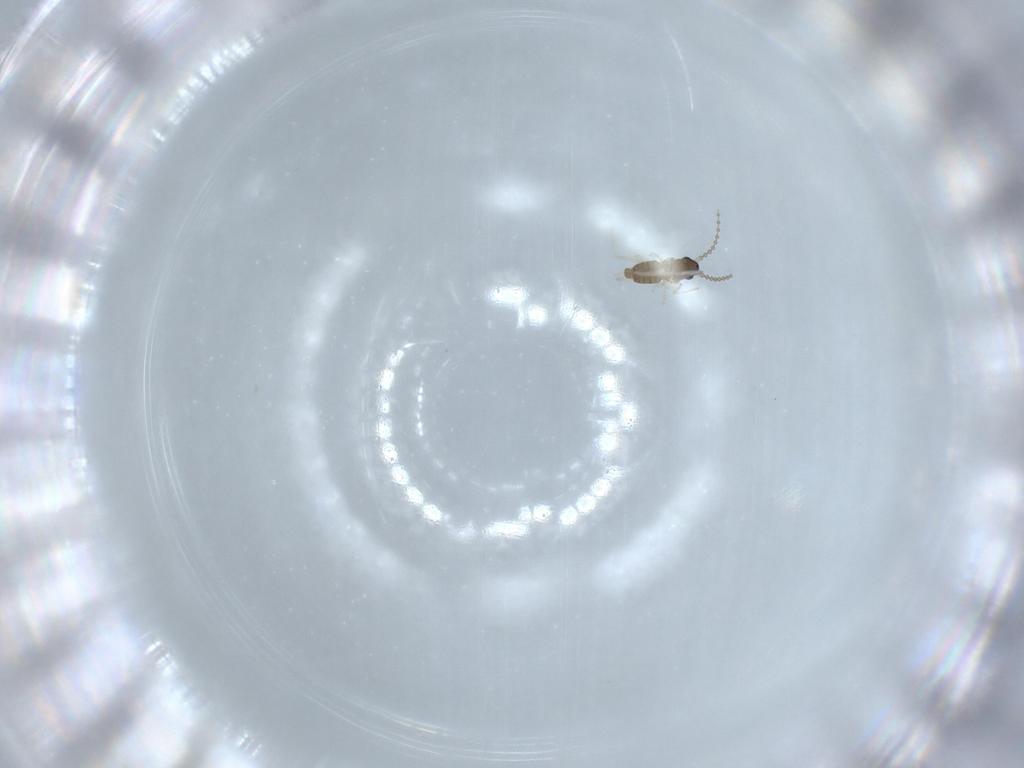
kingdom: Animalia
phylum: Arthropoda
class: Insecta
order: Diptera
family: Cecidomyiidae
